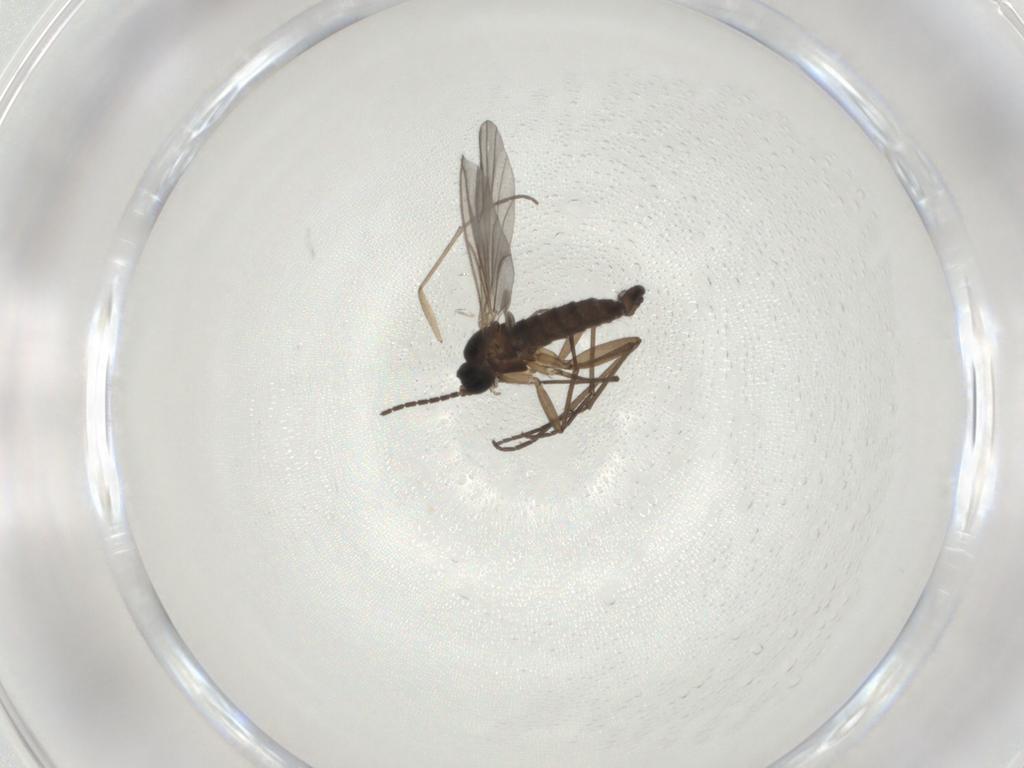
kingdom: Animalia
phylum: Arthropoda
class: Insecta
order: Diptera
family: Sciaridae
